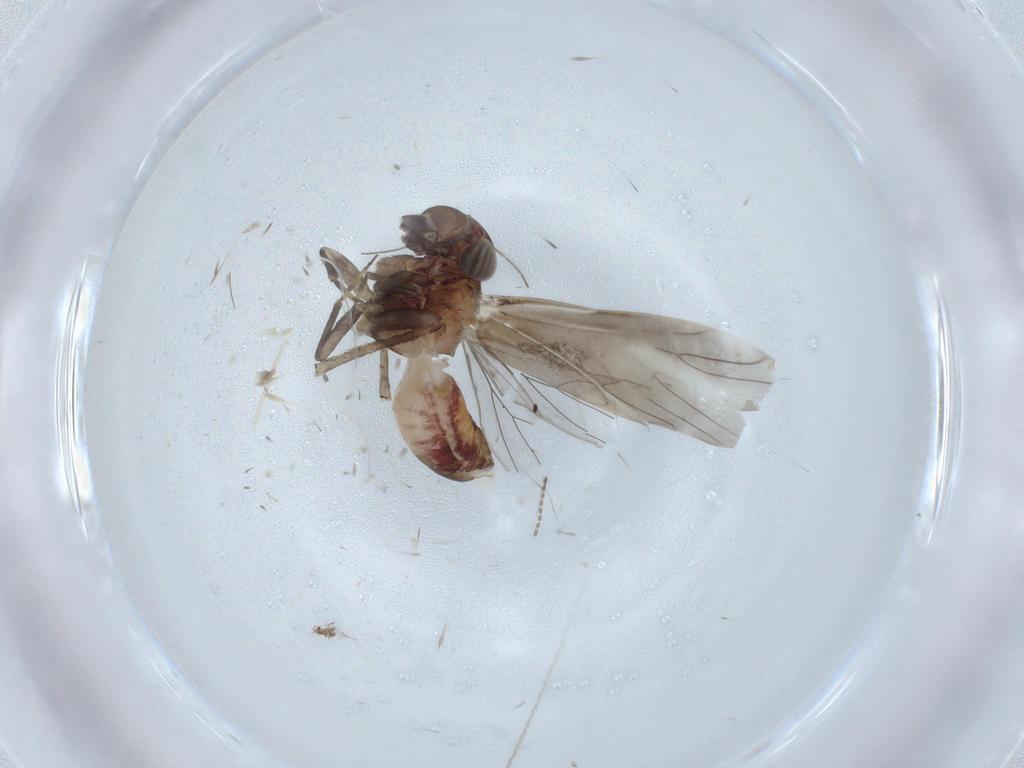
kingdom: Animalia
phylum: Arthropoda
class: Insecta
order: Psocodea
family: Amphientomidae
